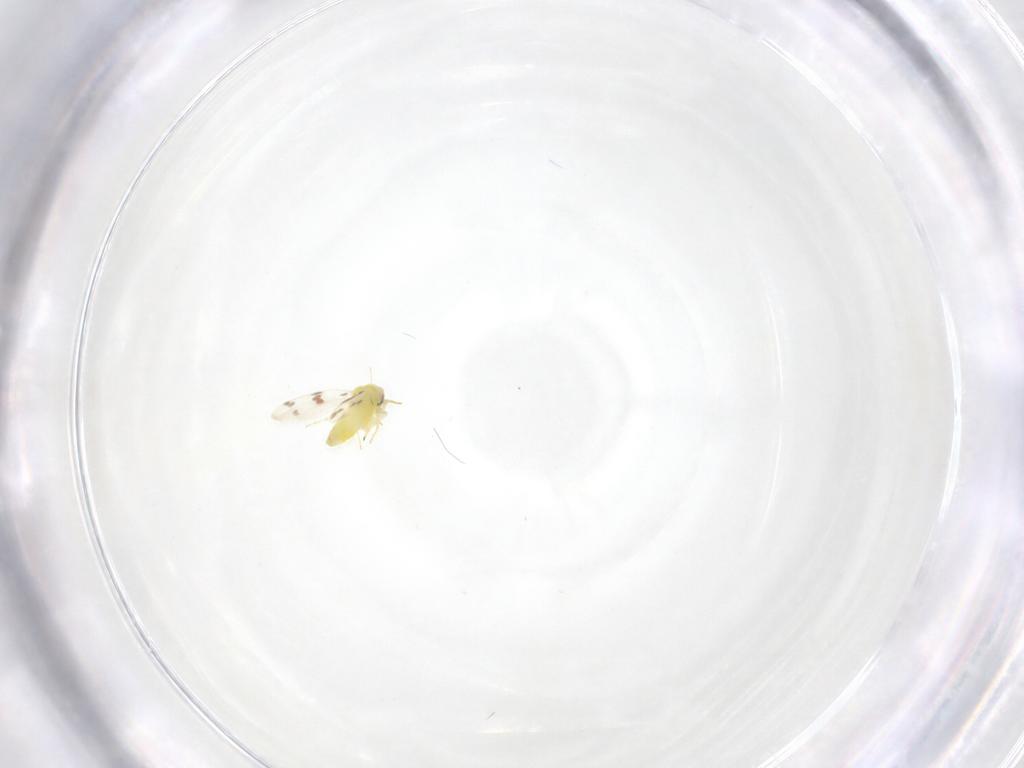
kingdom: Animalia
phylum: Arthropoda
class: Insecta
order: Hemiptera
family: Aleyrodidae
